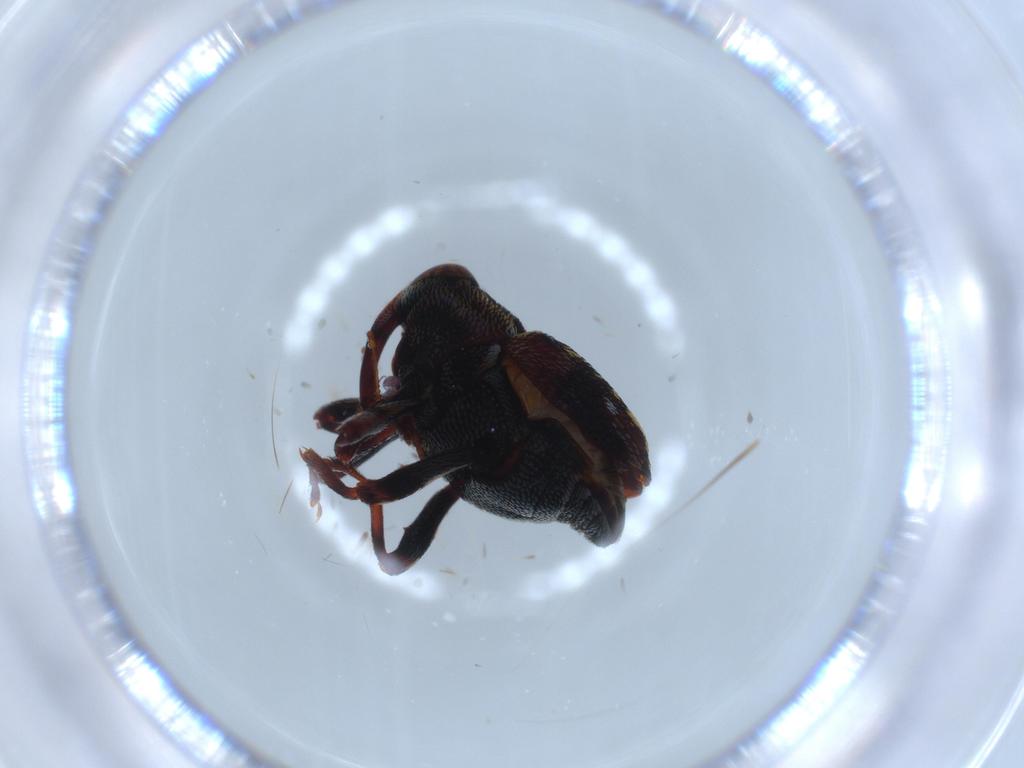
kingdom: Animalia
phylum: Arthropoda
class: Insecta
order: Coleoptera
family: Curculionidae
